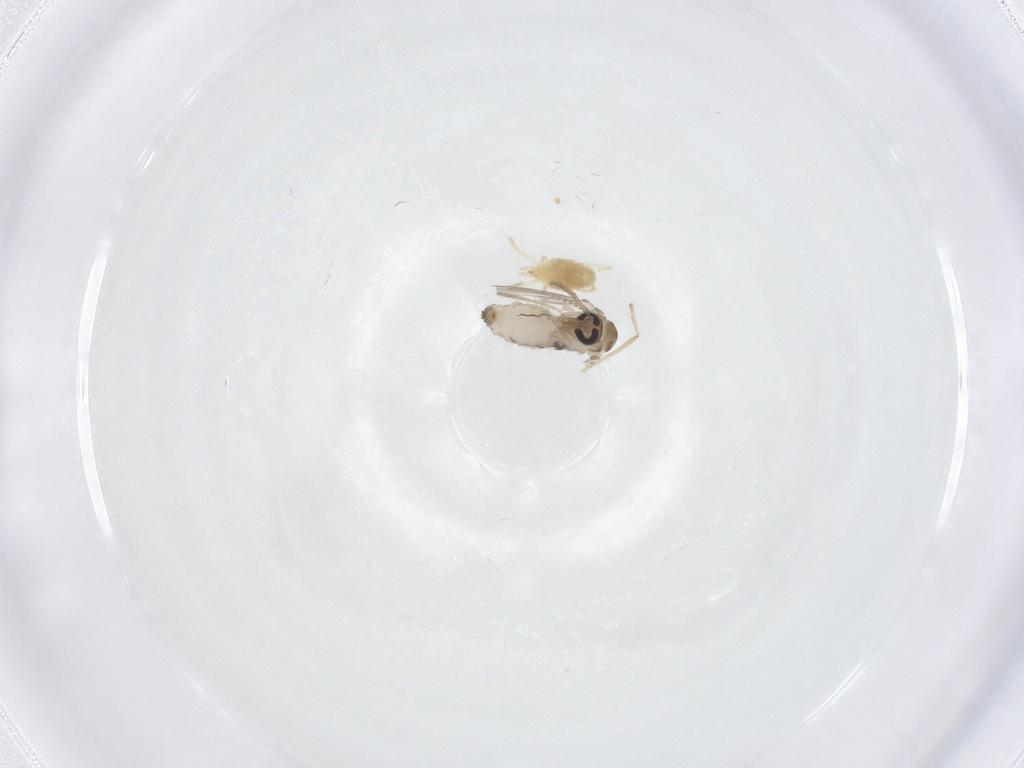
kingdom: Animalia
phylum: Arthropoda
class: Insecta
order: Diptera
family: Psychodidae
